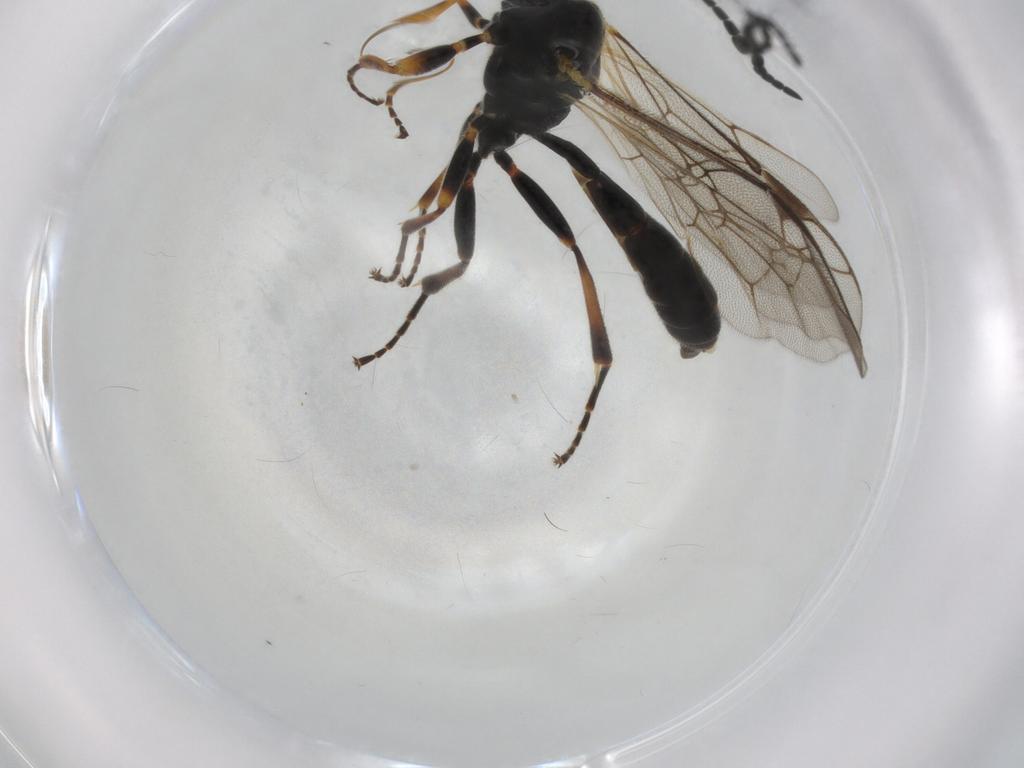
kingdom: Animalia
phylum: Arthropoda
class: Insecta
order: Hymenoptera
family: Ichneumonidae
